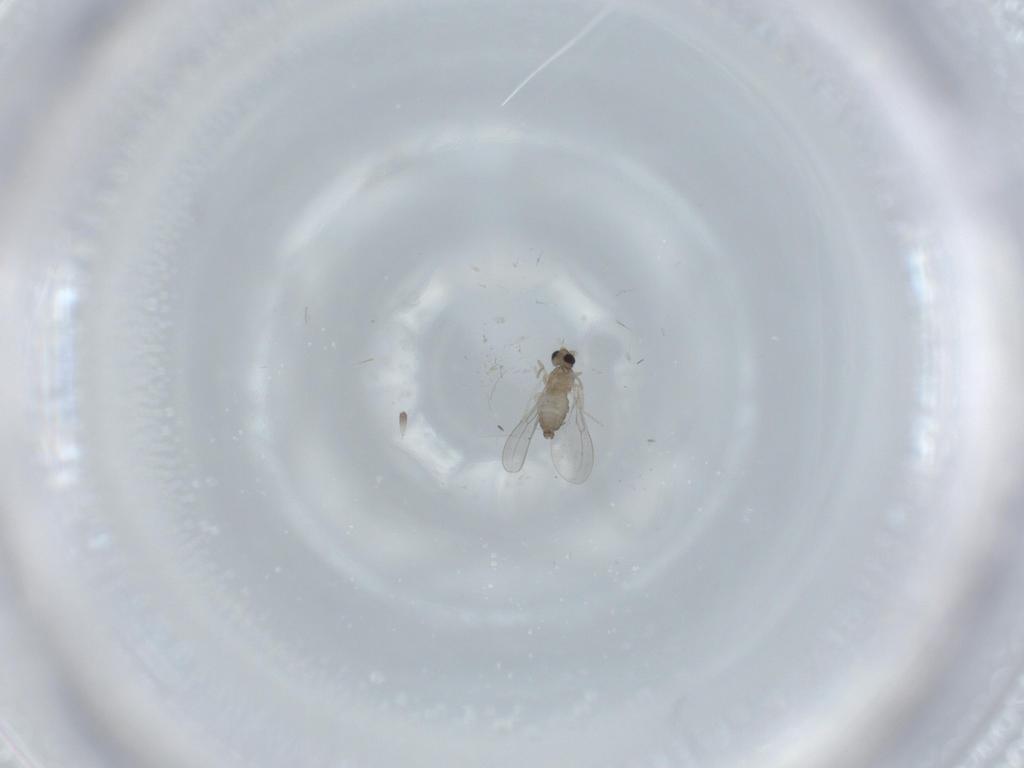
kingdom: Animalia
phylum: Arthropoda
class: Insecta
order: Diptera
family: Cecidomyiidae
